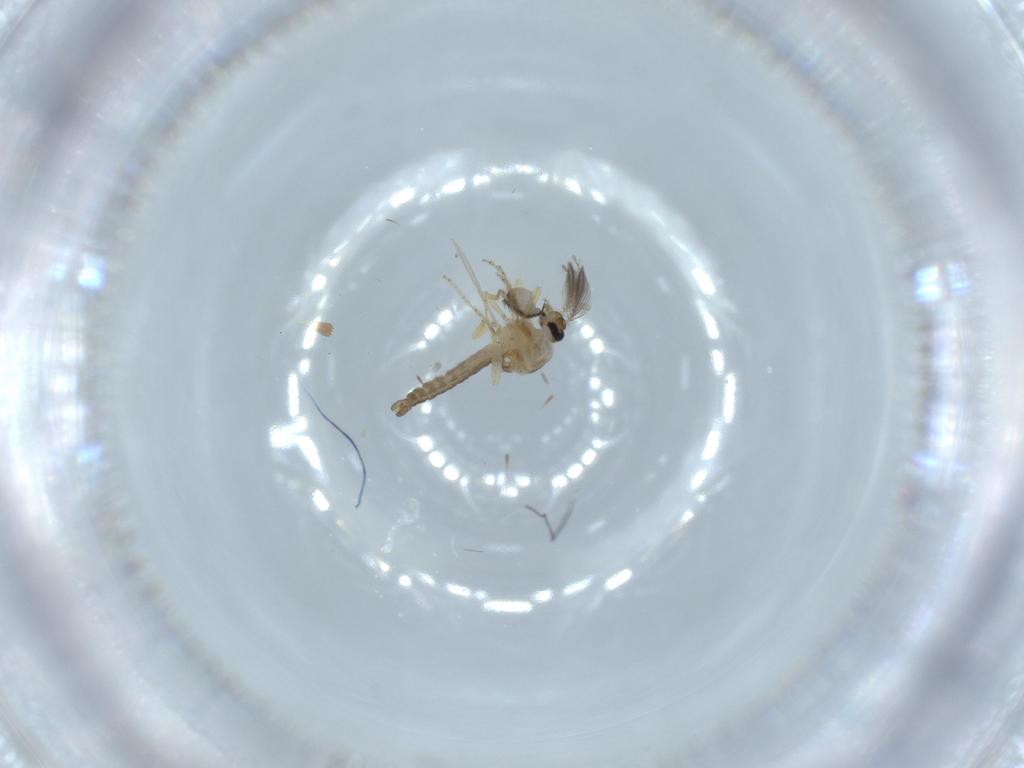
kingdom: Animalia
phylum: Arthropoda
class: Insecta
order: Diptera
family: Ceratopogonidae
